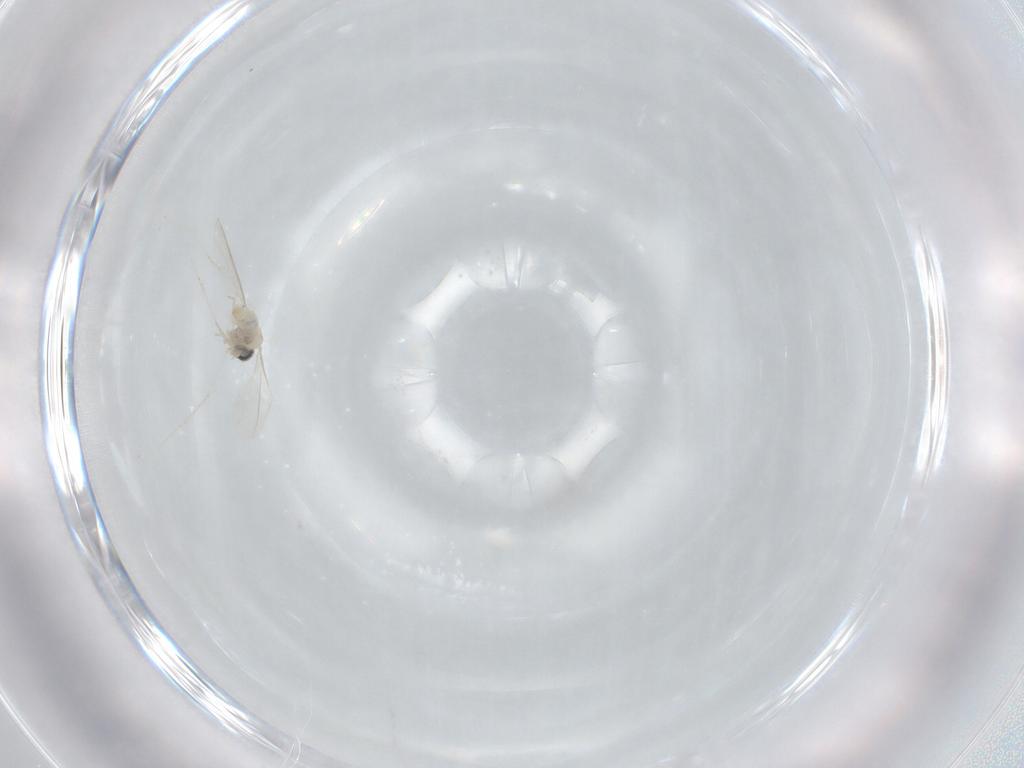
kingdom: Animalia
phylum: Arthropoda
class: Insecta
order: Diptera
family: Cecidomyiidae
